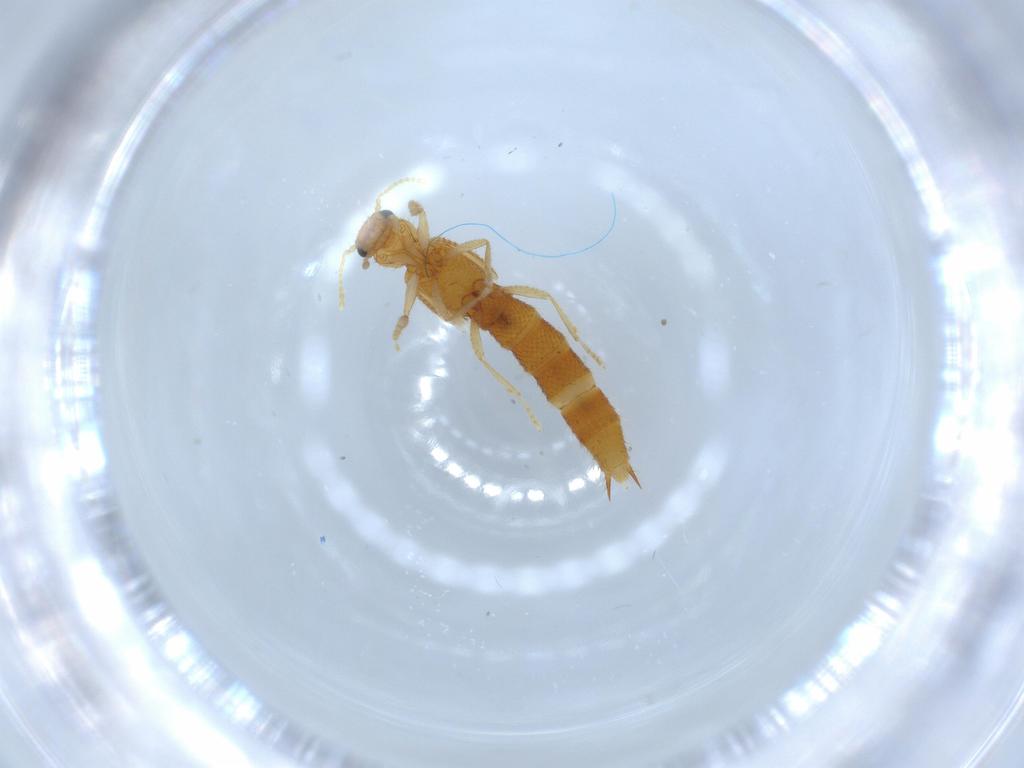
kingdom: Animalia
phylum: Arthropoda
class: Insecta
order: Coleoptera
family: Staphylinidae
